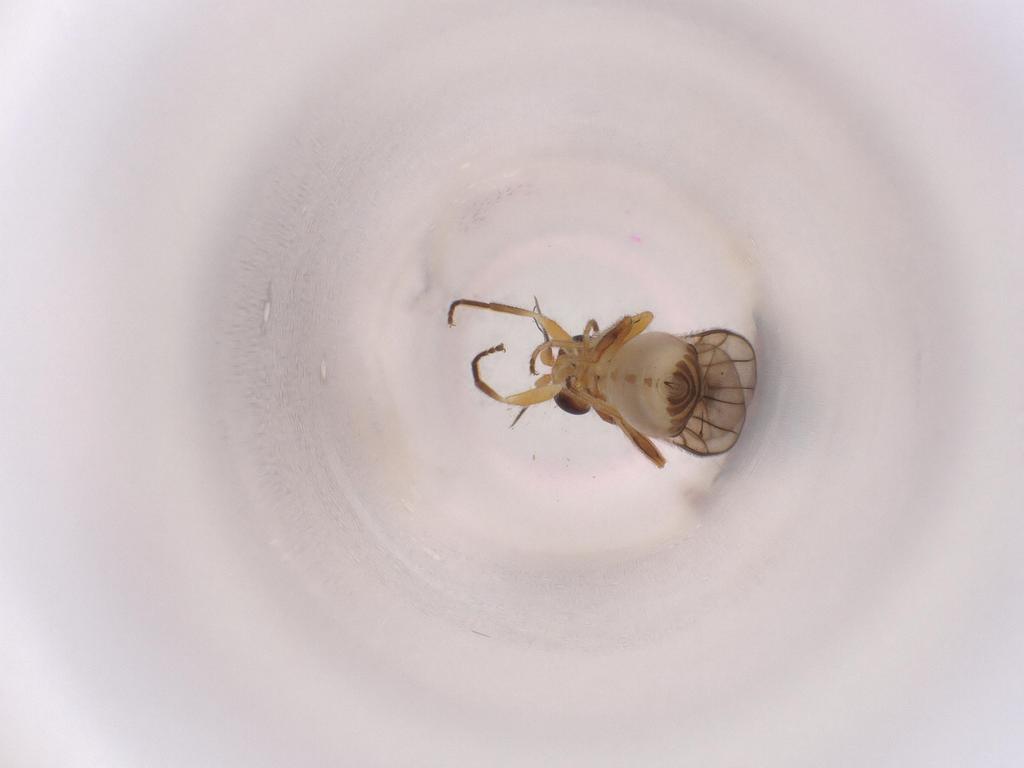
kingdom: Animalia
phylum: Arthropoda
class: Insecta
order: Diptera
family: Chloropidae
